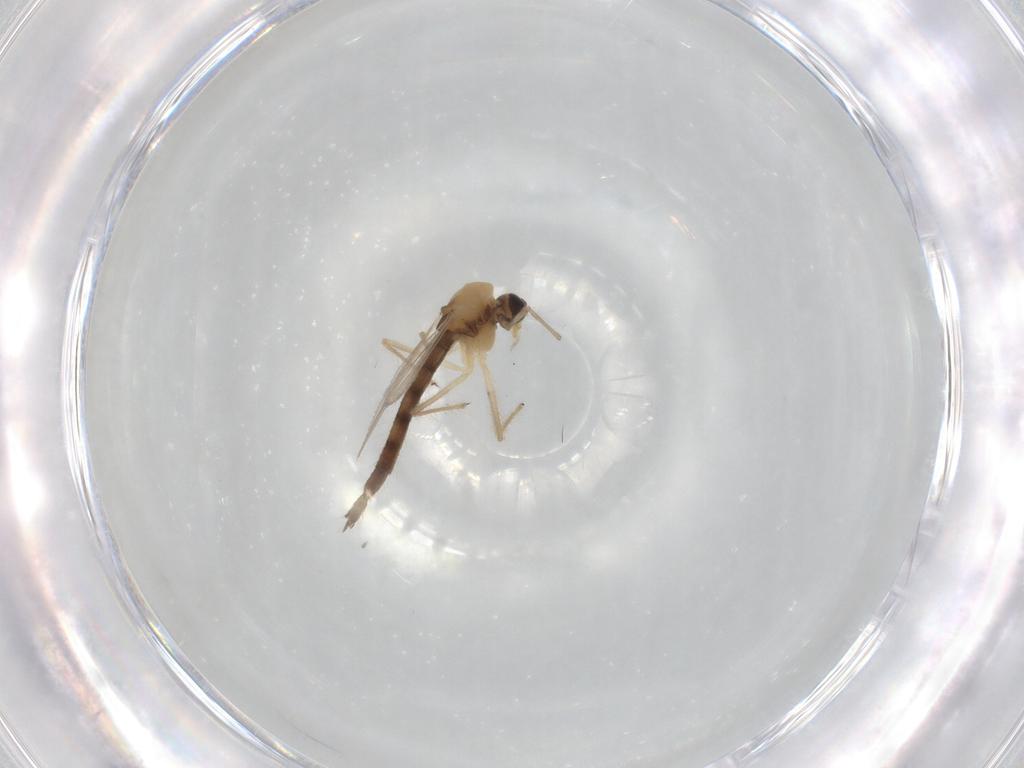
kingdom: Animalia
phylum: Arthropoda
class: Insecta
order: Diptera
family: Chironomidae
